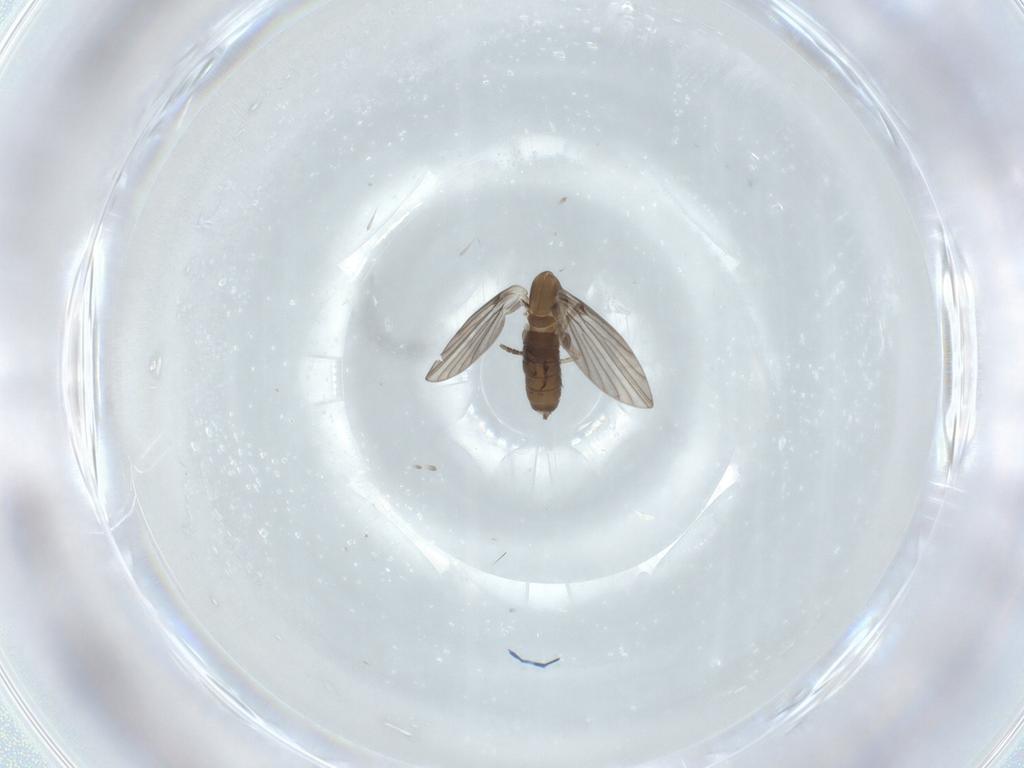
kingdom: Animalia
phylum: Arthropoda
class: Insecta
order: Diptera
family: Psychodidae
